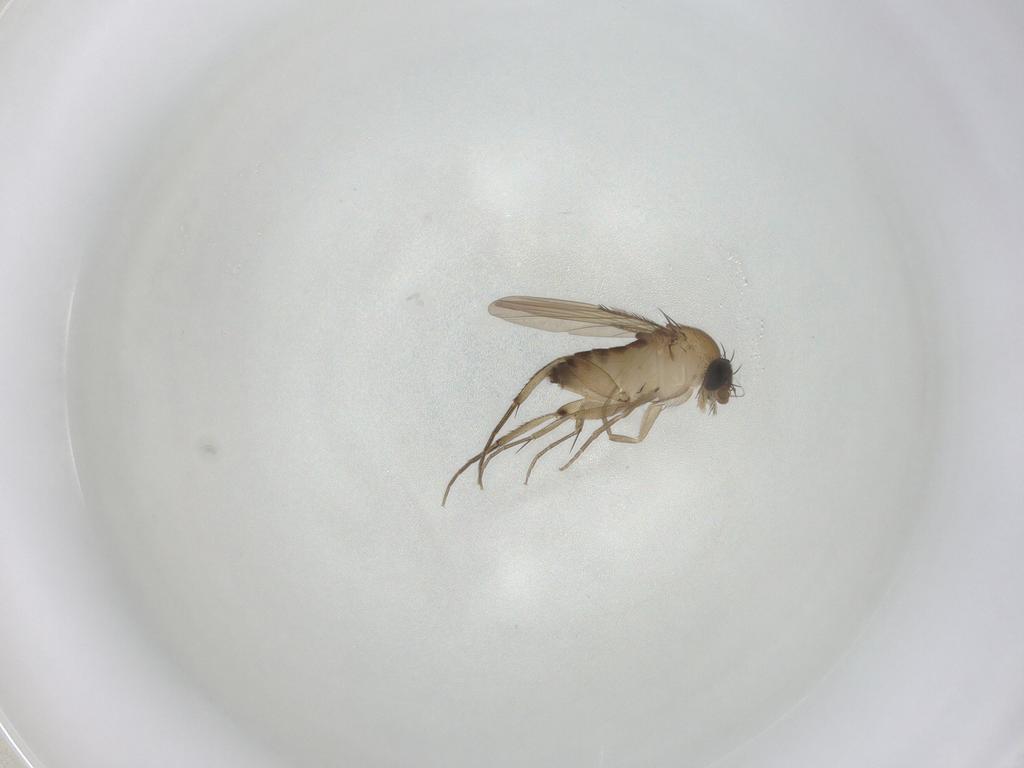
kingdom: Animalia
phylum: Arthropoda
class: Insecta
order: Diptera
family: Phoridae
